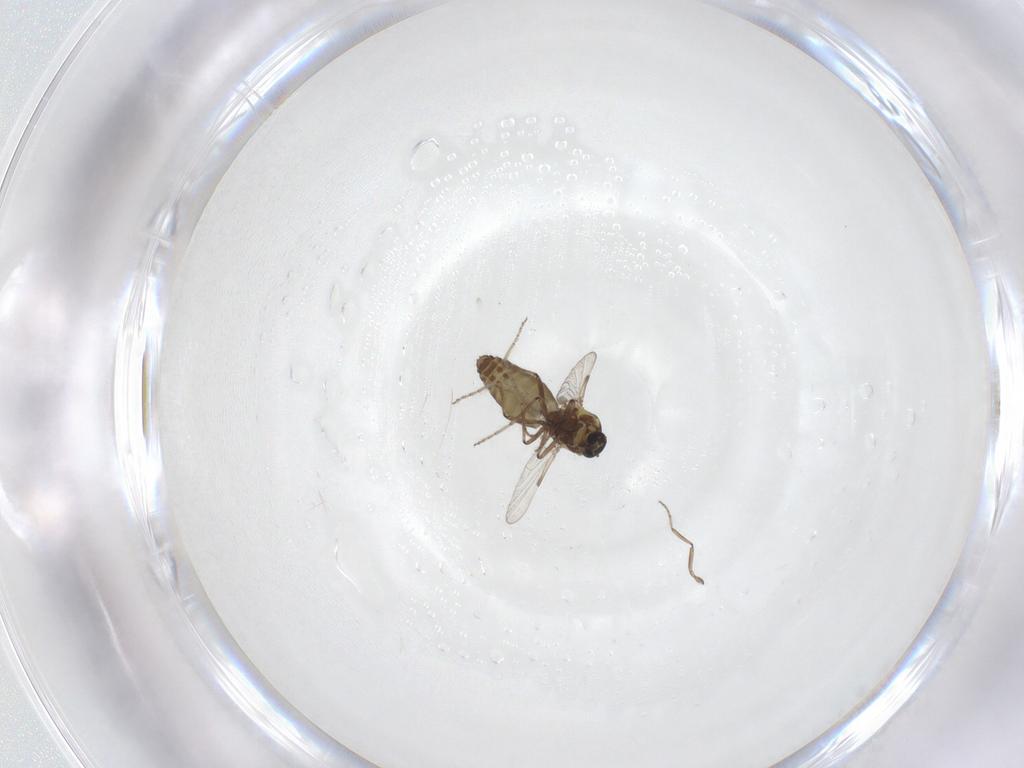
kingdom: Animalia
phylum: Arthropoda
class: Insecta
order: Diptera
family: Ceratopogonidae
